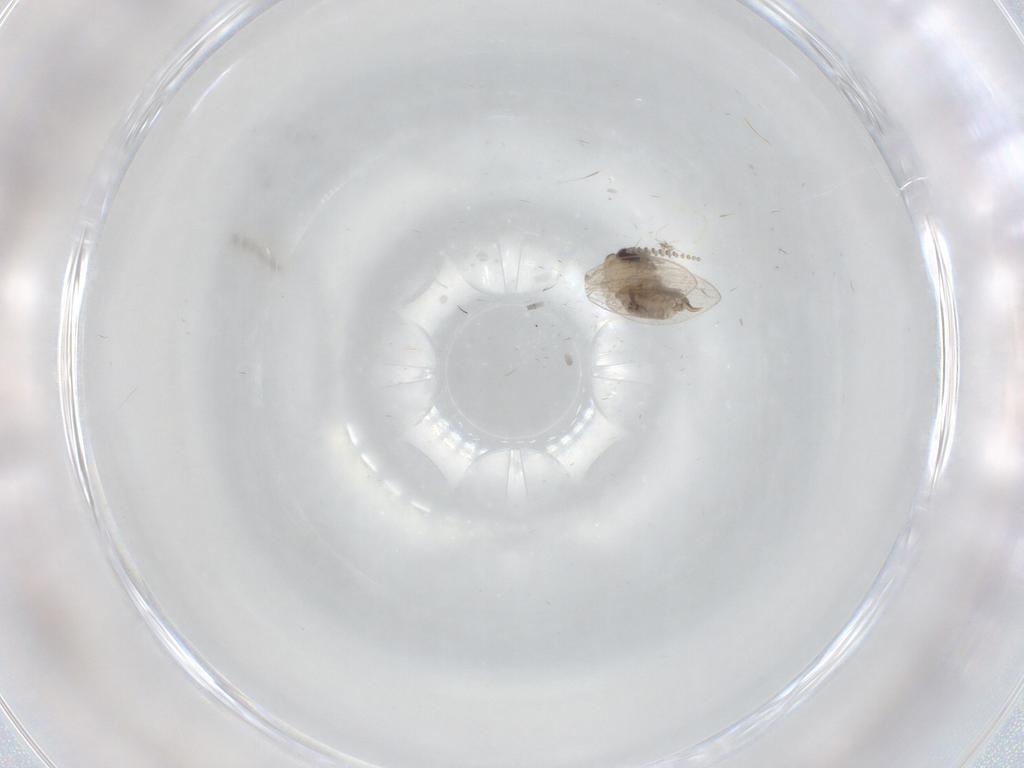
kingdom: Animalia
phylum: Arthropoda
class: Insecta
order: Diptera
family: Psychodidae
